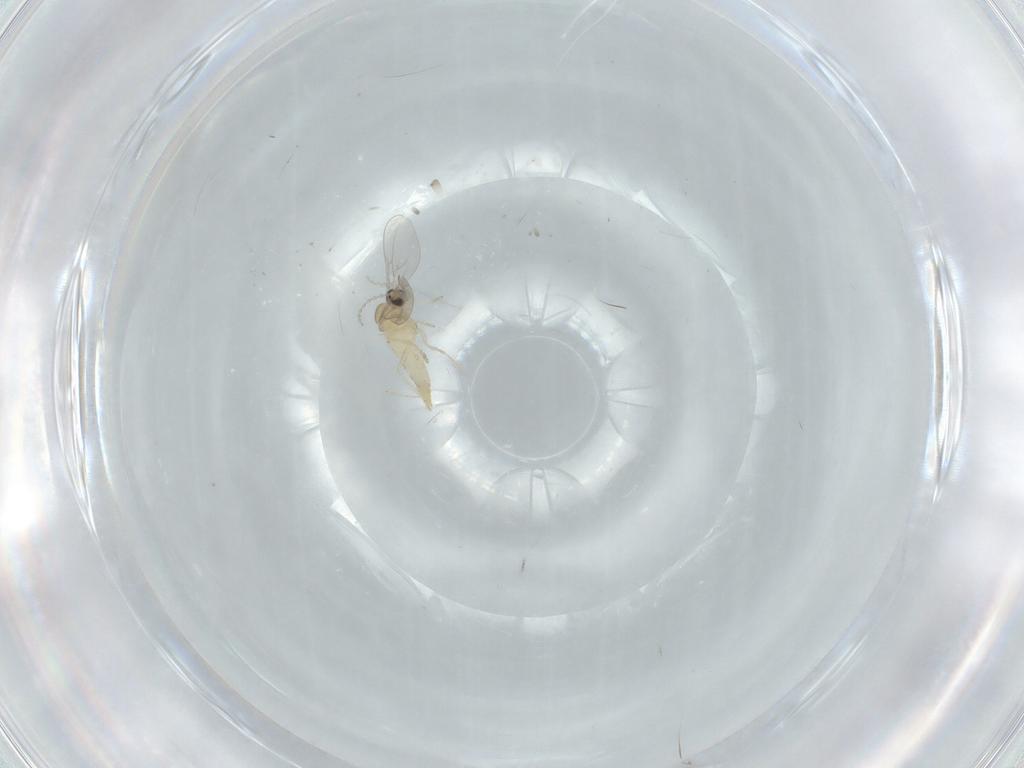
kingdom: Animalia
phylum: Arthropoda
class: Insecta
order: Diptera
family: Cecidomyiidae
